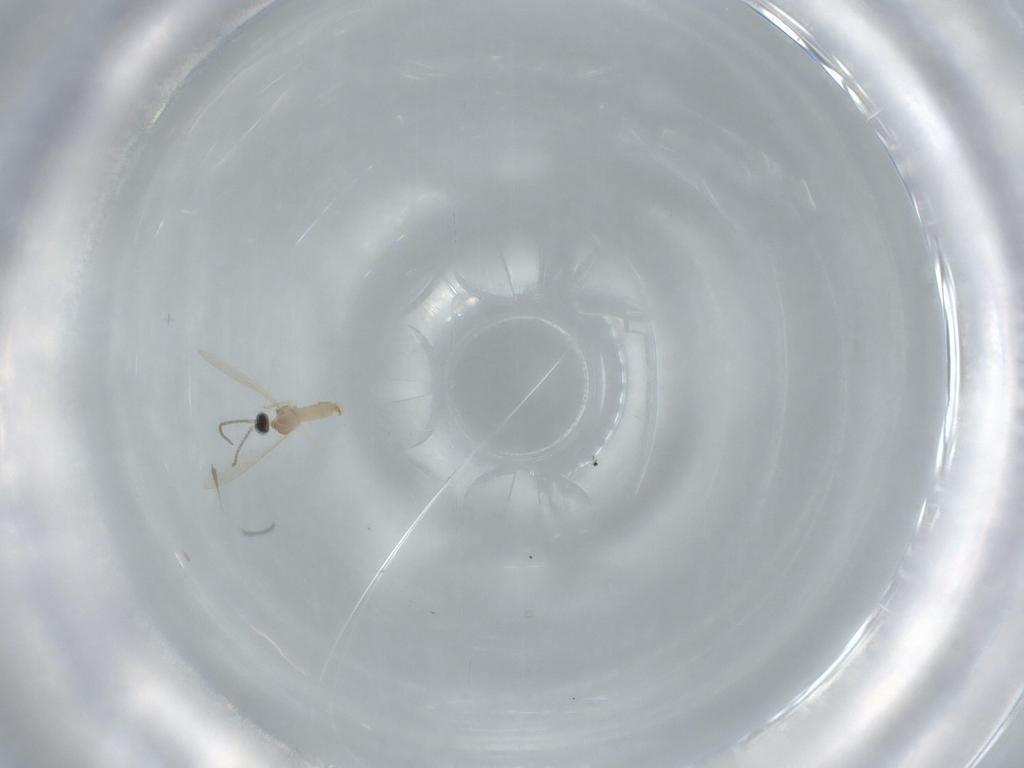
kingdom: Animalia
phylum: Arthropoda
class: Insecta
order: Diptera
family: Cecidomyiidae
